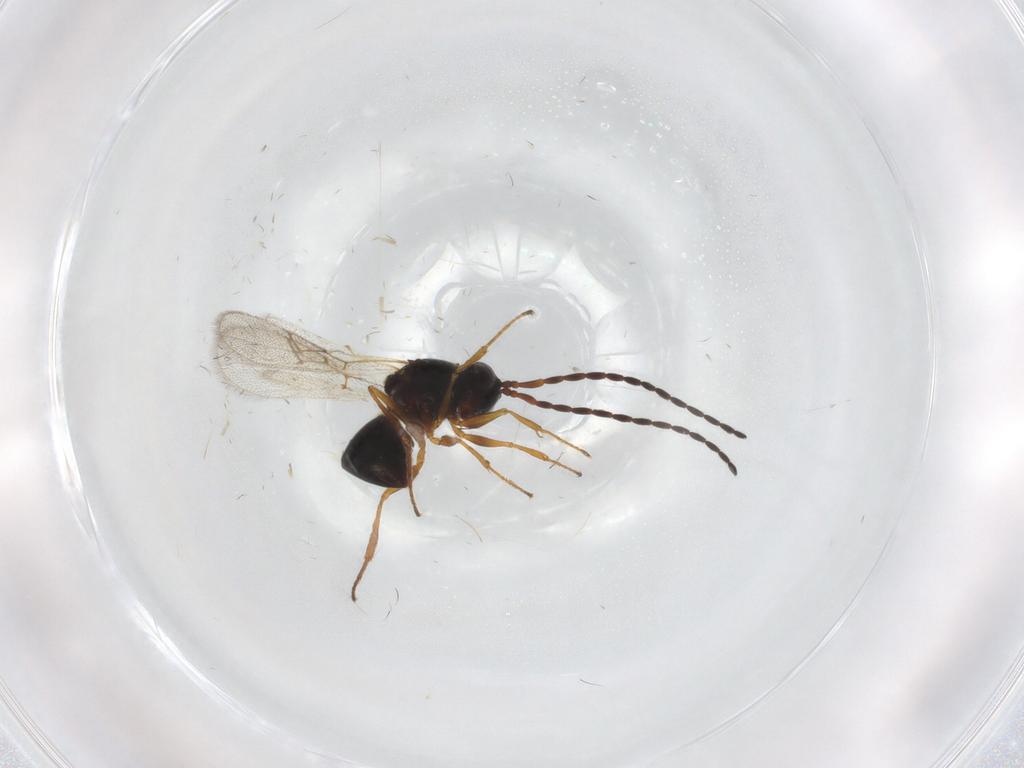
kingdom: Animalia
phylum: Arthropoda
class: Insecta
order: Hymenoptera
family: Figitidae
